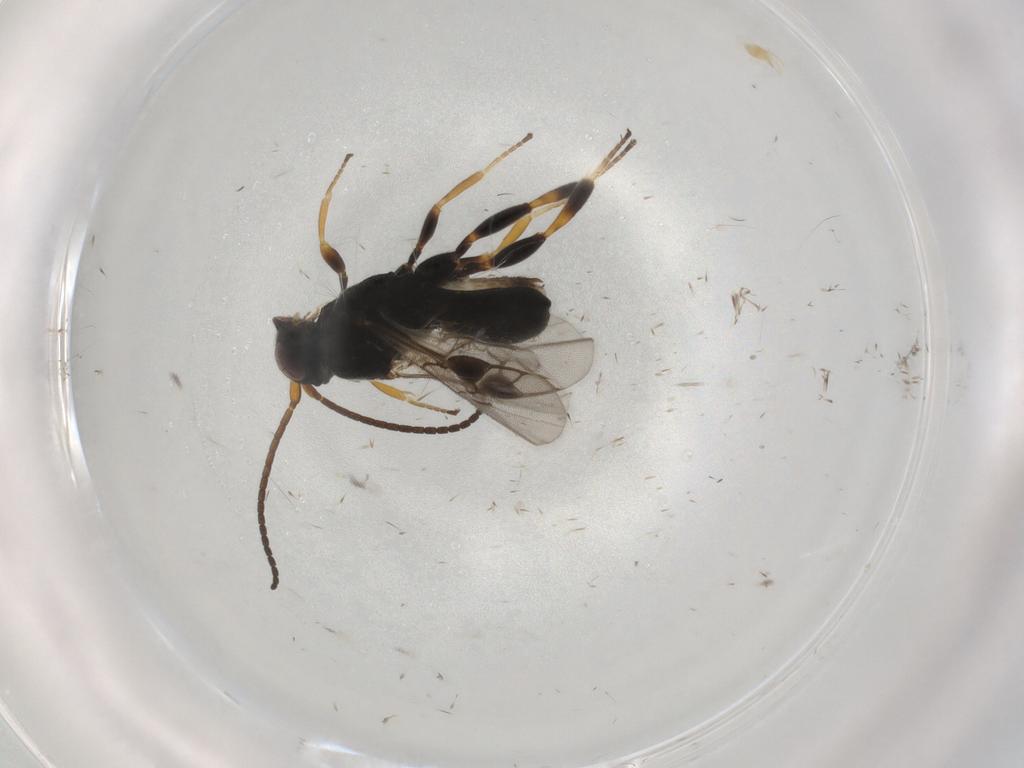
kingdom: Animalia
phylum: Arthropoda
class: Insecta
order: Hymenoptera
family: Braconidae
